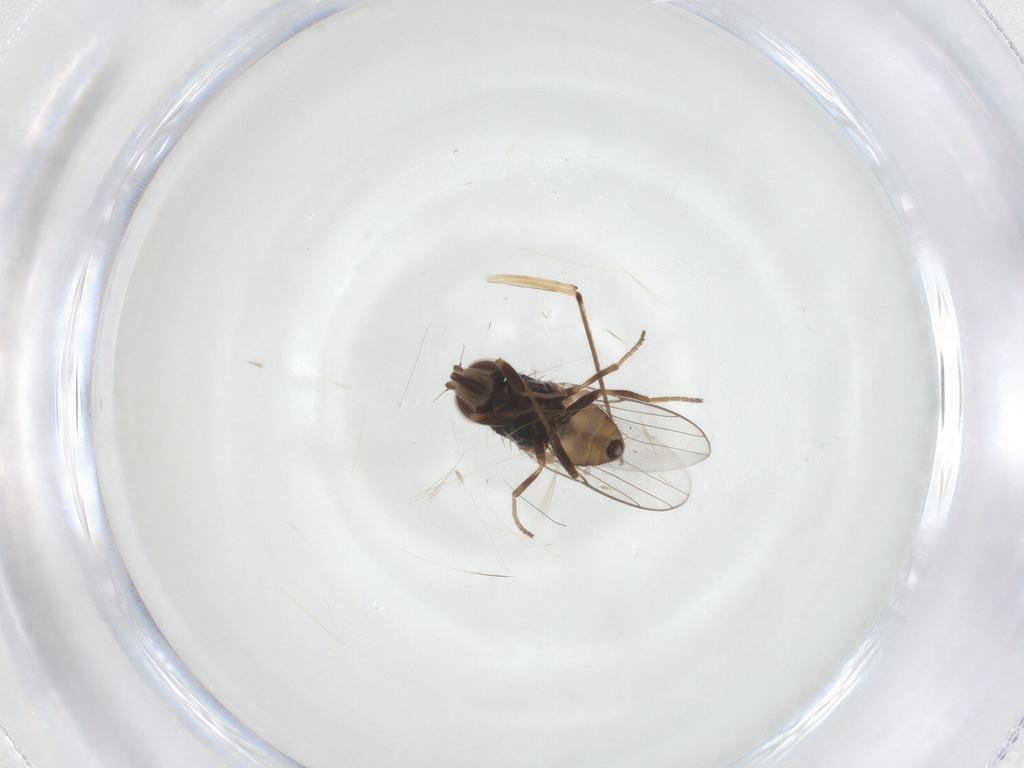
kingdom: Animalia
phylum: Arthropoda
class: Insecta
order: Diptera
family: Chloropidae
